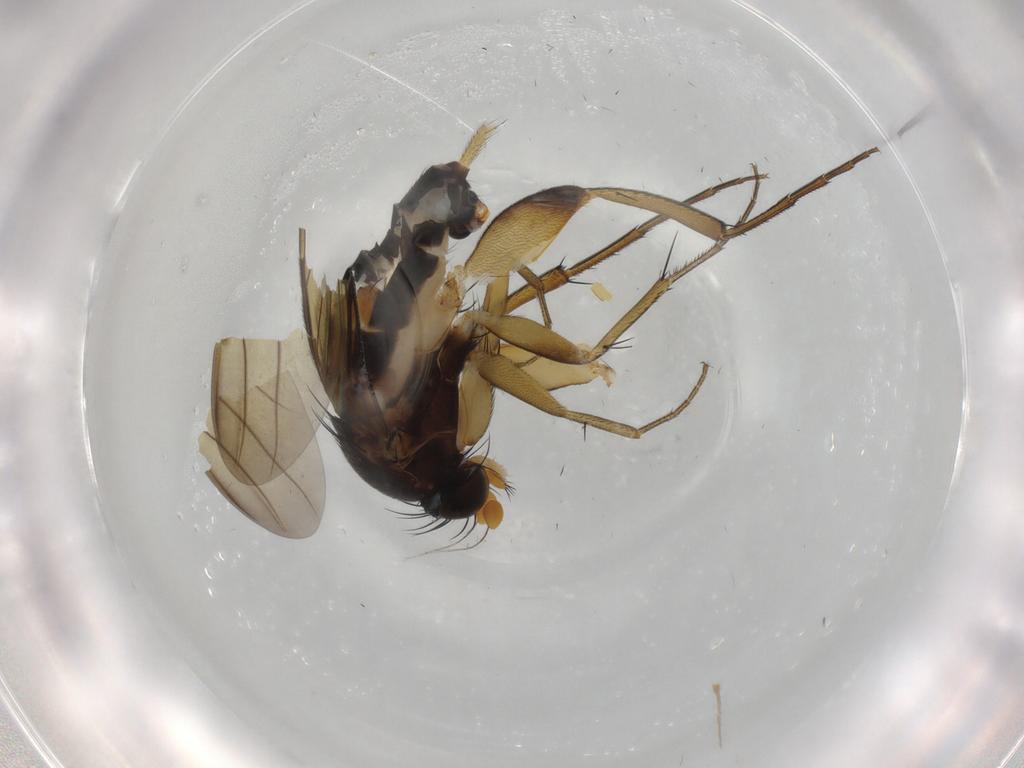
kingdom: Animalia
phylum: Arthropoda
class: Insecta
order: Diptera
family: Phoridae
